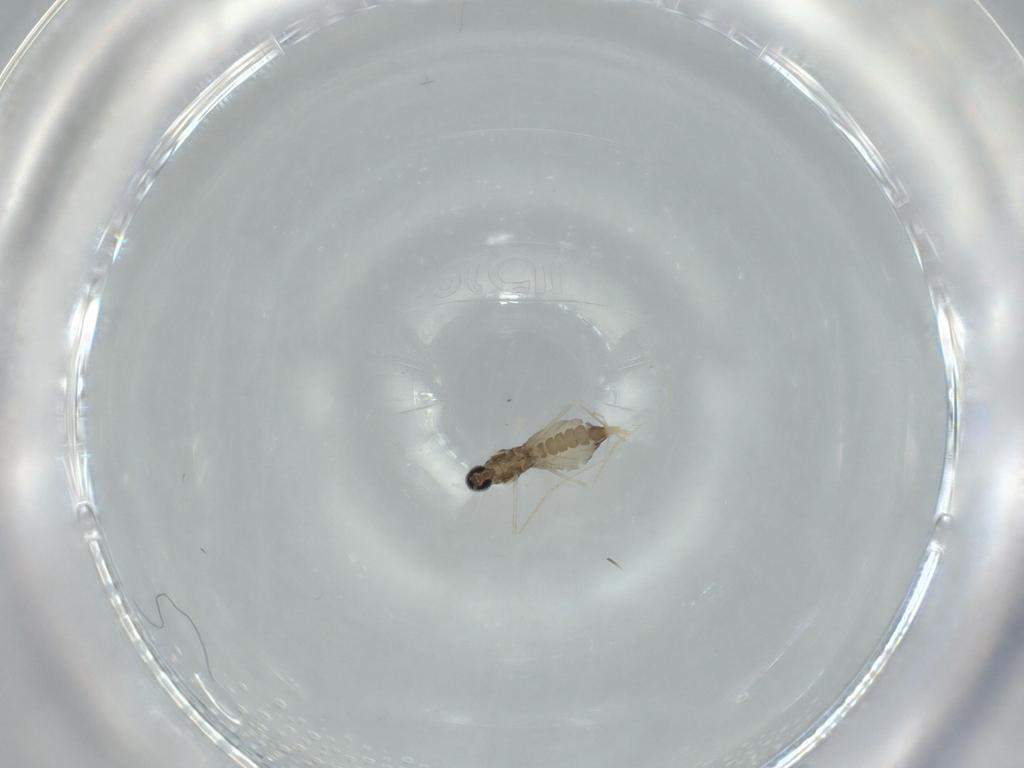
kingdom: Animalia
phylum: Arthropoda
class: Insecta
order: Diptera
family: Cecidomyiidae
